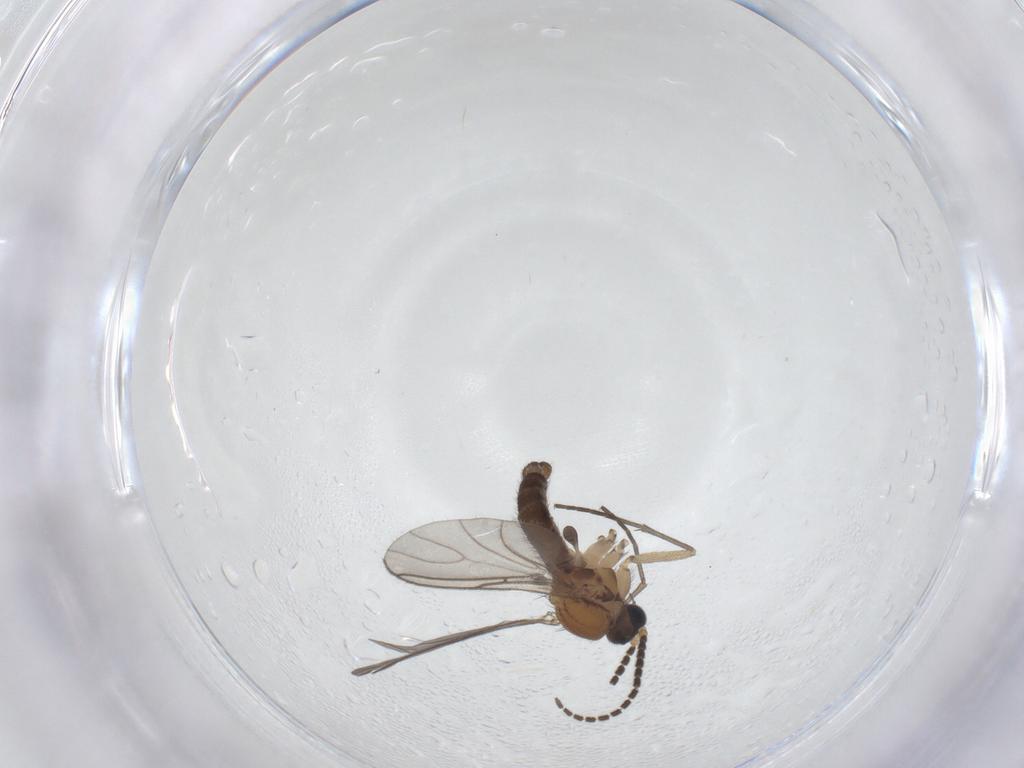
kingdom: Animalia
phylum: Arthropoda
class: Insecta
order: Diptera
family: Sciaridae
